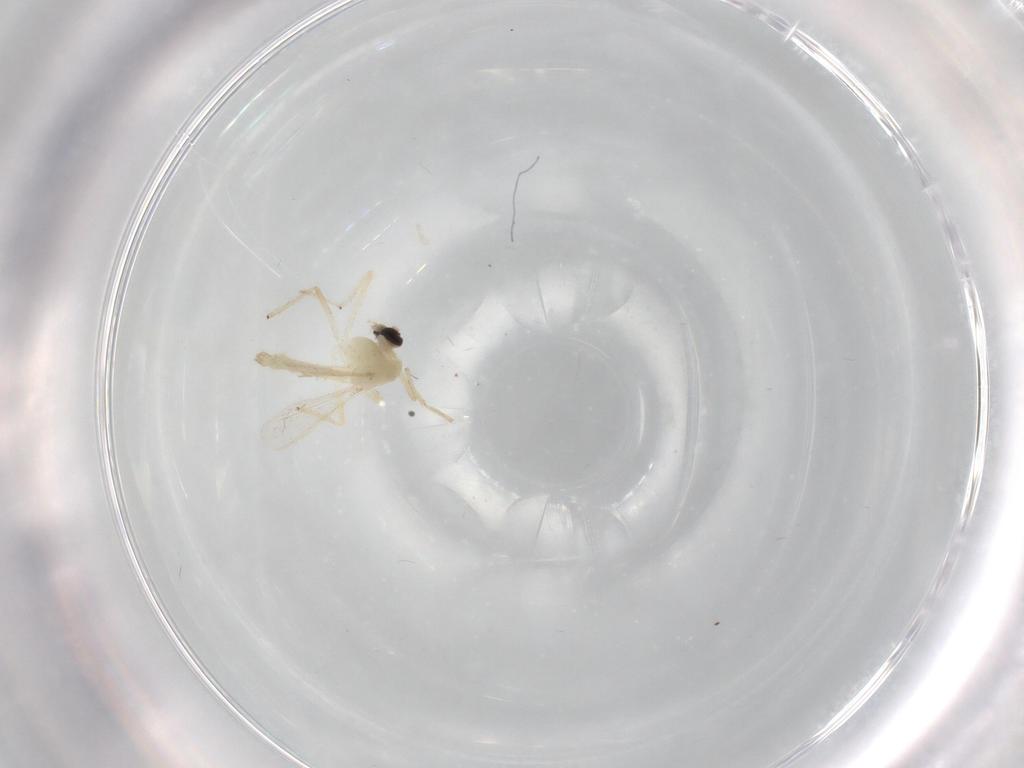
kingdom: Animalia
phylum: Arthropoda
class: Insecta
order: Diptera
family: Chironomidae
